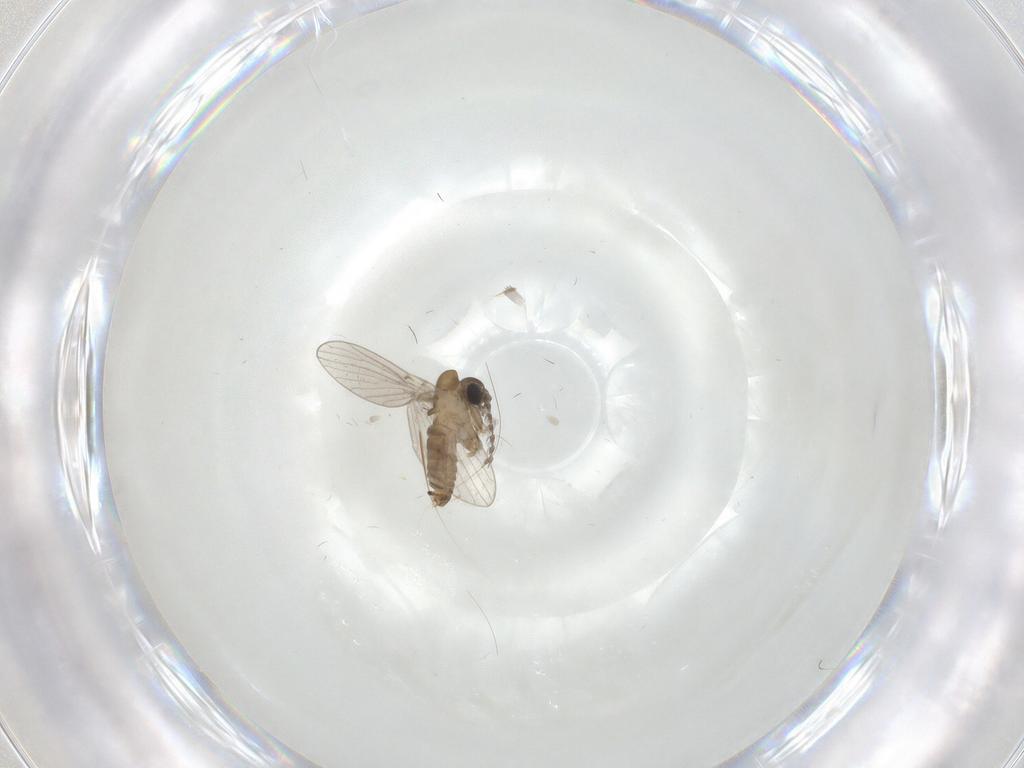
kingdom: Animalia
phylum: Arthropoda
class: Insecta
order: Diptera
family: Psychodidae
